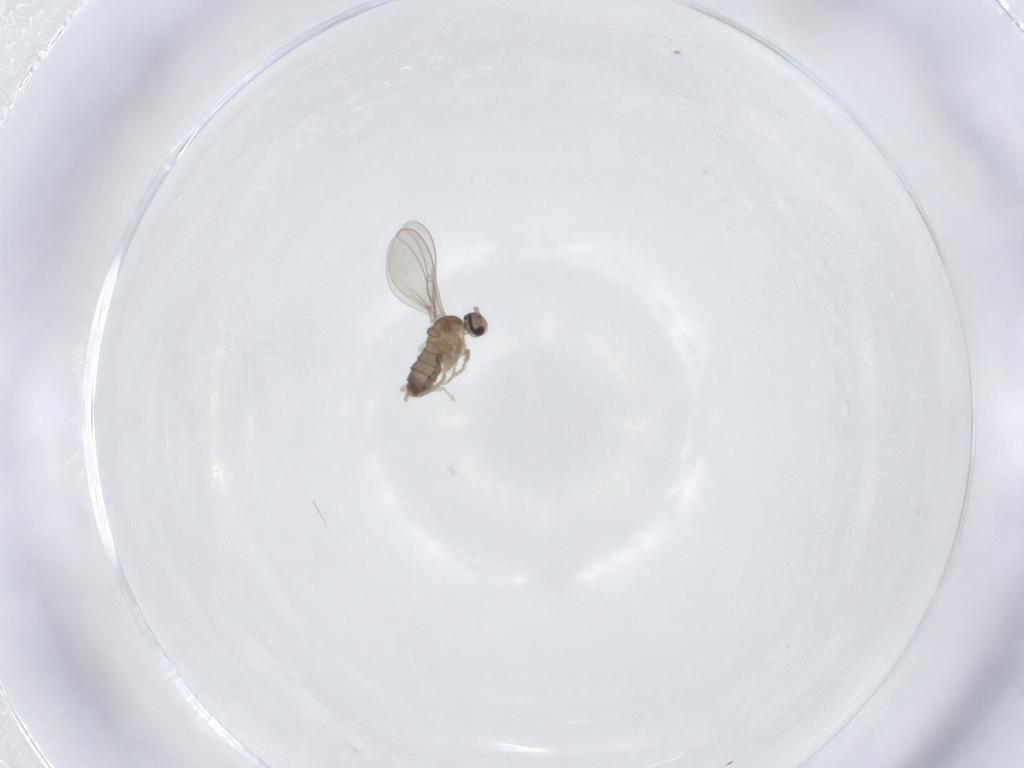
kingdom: Animalia
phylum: Arthropoda
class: Insecta
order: Diptera
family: Cecidomyiidae
